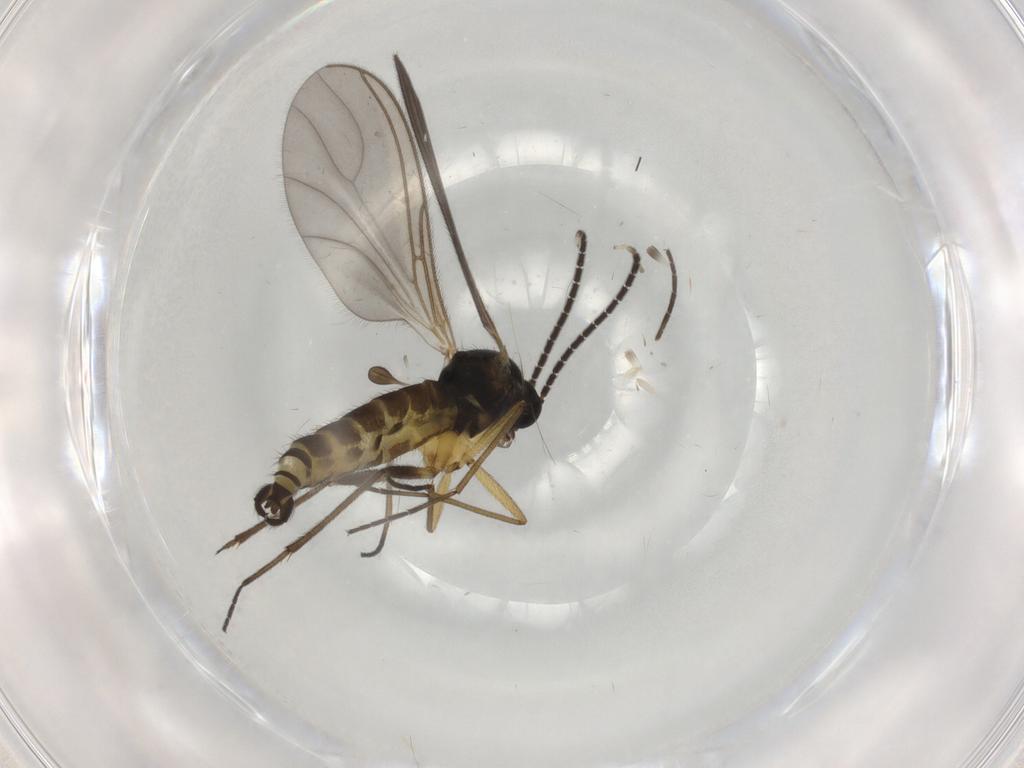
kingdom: Animalia
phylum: Arthropoda
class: Insecta
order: Diptera
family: Sciaridae
